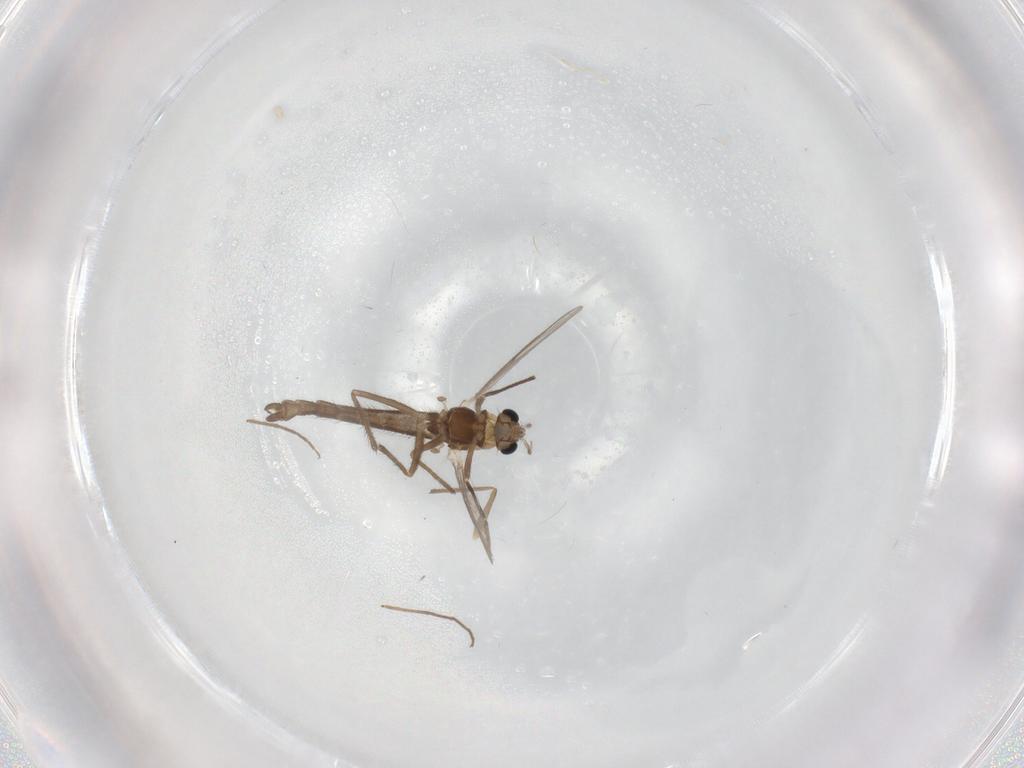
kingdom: Animalia
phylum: Arthropoda
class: Insecta
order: Diptera
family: Chironomidae
